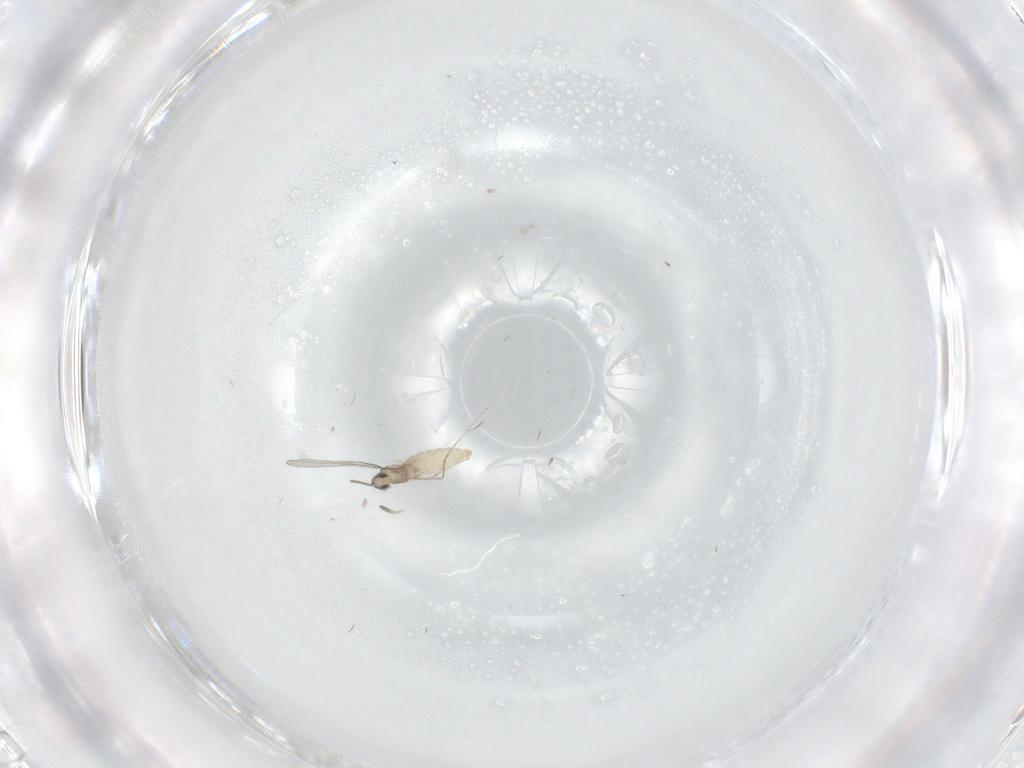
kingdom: Animalia
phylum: Arthropoda
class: Insecta
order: Diptera
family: Cecidomyiidae
